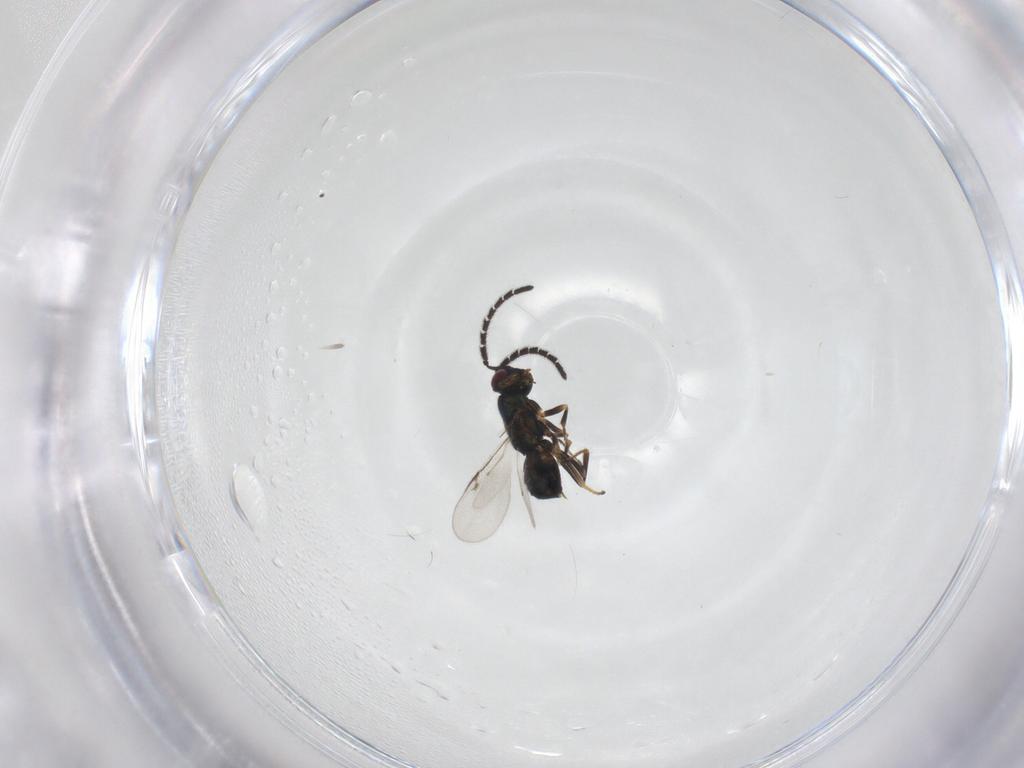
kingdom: Animalia
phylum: Arthropoda
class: Insecta
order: Hymenoptera
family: Encyrtidae
